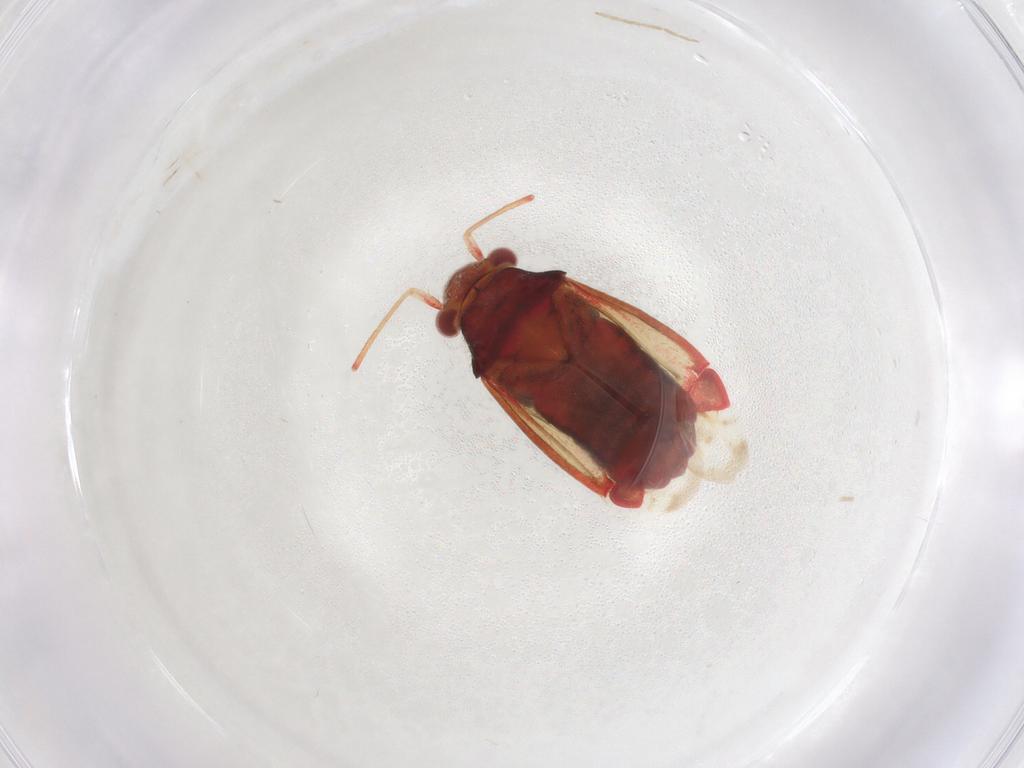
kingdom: Animalia
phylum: Arthropoda
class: Insecta
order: Hemiptera
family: Miridae
